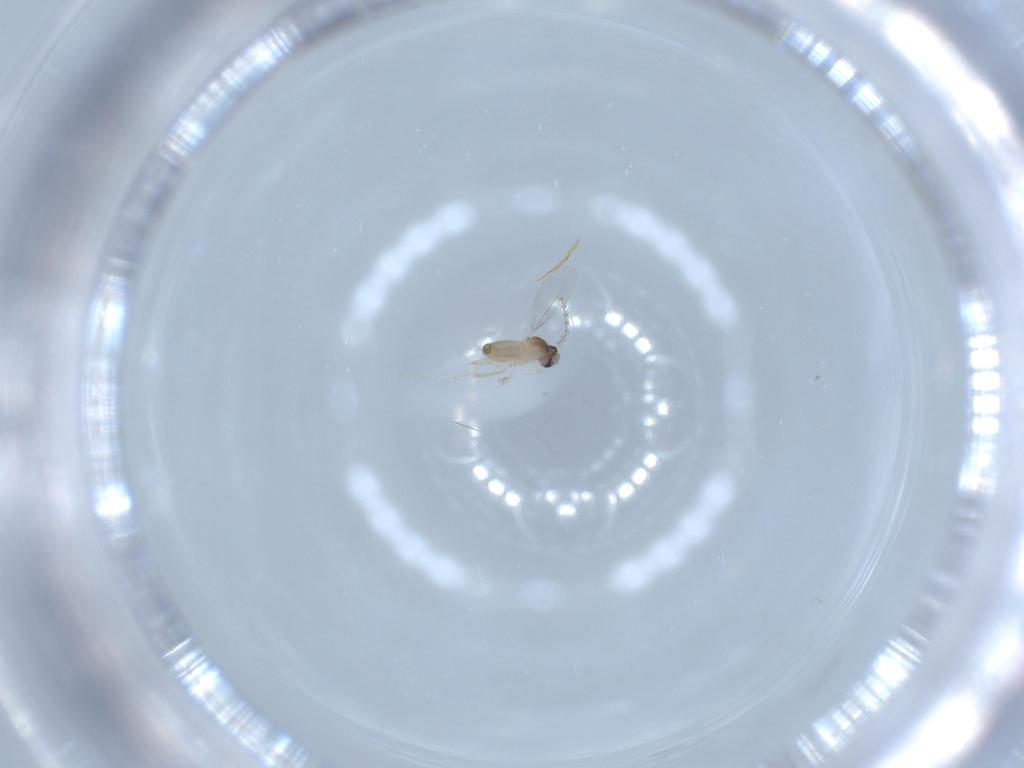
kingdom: Animalia
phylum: Arthropoda
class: Insecta
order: Diptera
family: Cecidomyiidae
